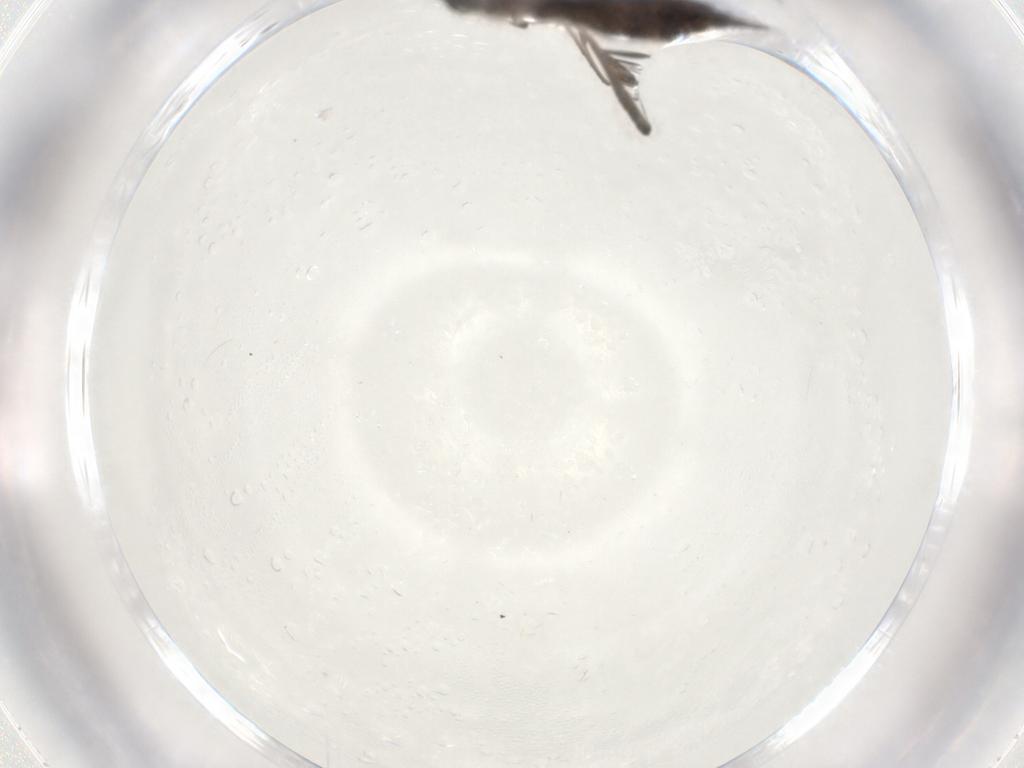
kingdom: Animalia
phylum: Arthropoda
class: Insecta
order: Diptera
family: Sciaridae
